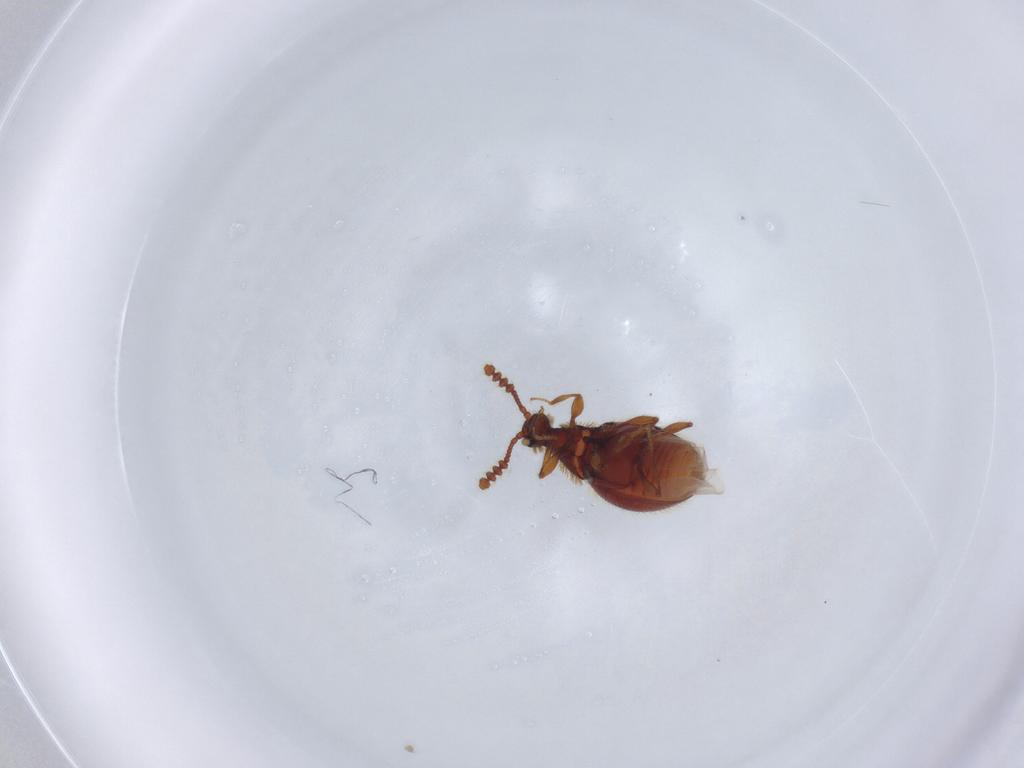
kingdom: Animalia
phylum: Arthropoda
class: Insecta
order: Coleoptera
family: Staphylinidae
